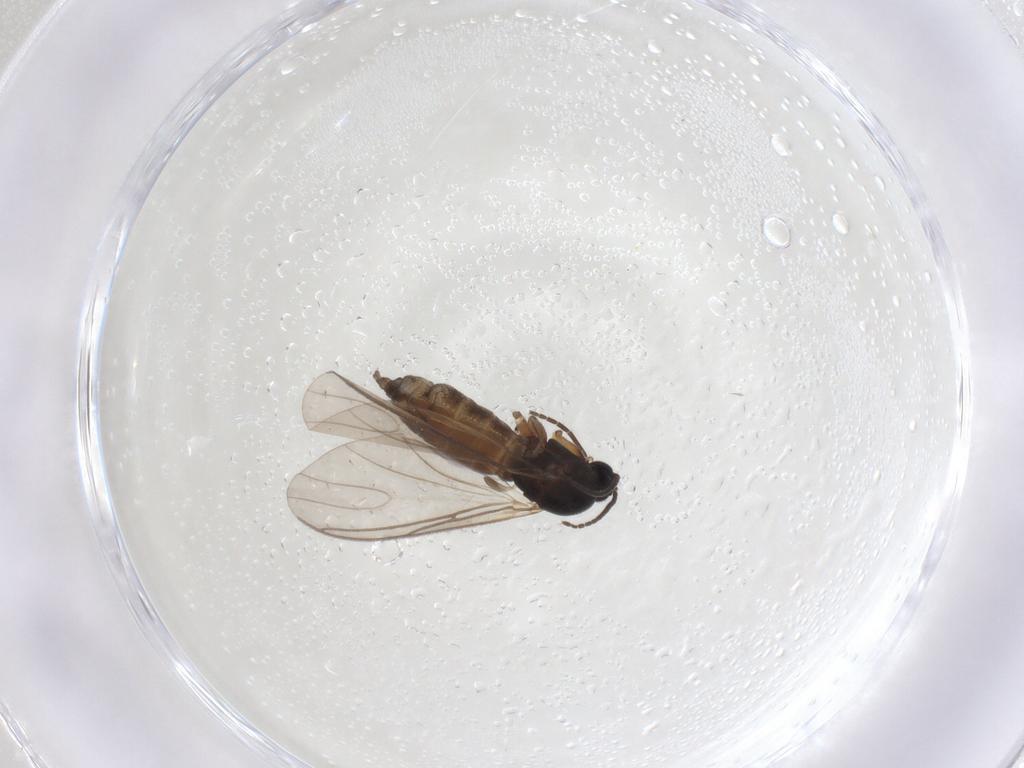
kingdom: Animalia
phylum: Arthropoda
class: Insecta
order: Diptera
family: Sciaridae
